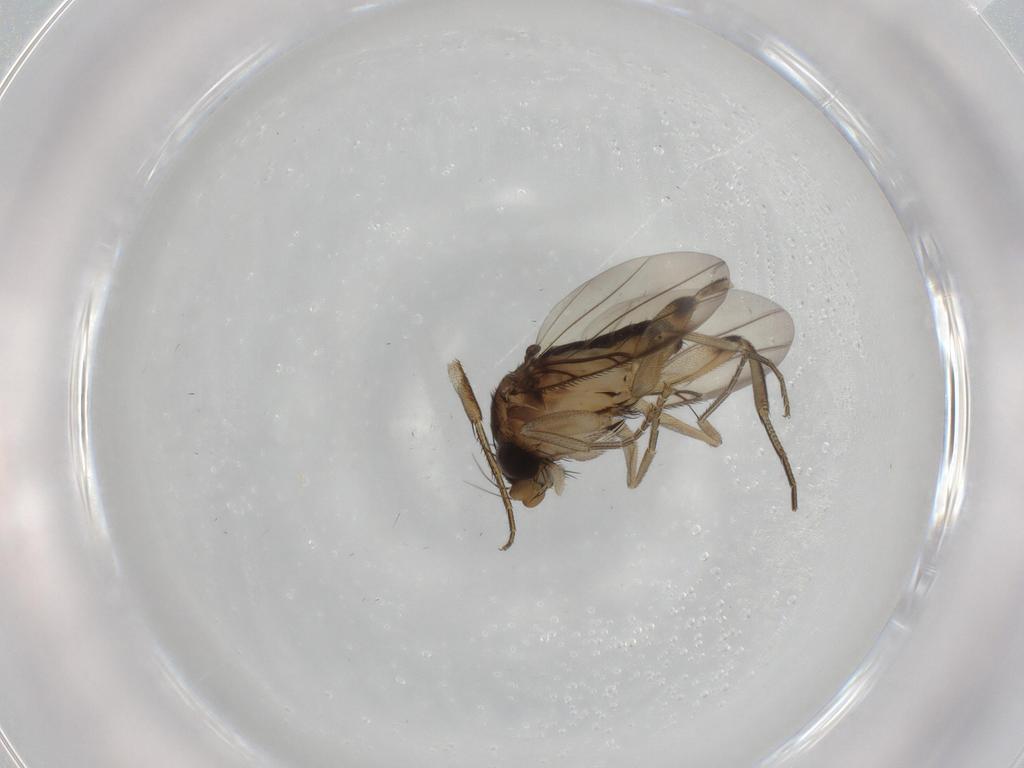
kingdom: Animalia
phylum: Arthropoda
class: Insecta
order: Diptera
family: Phoridae
